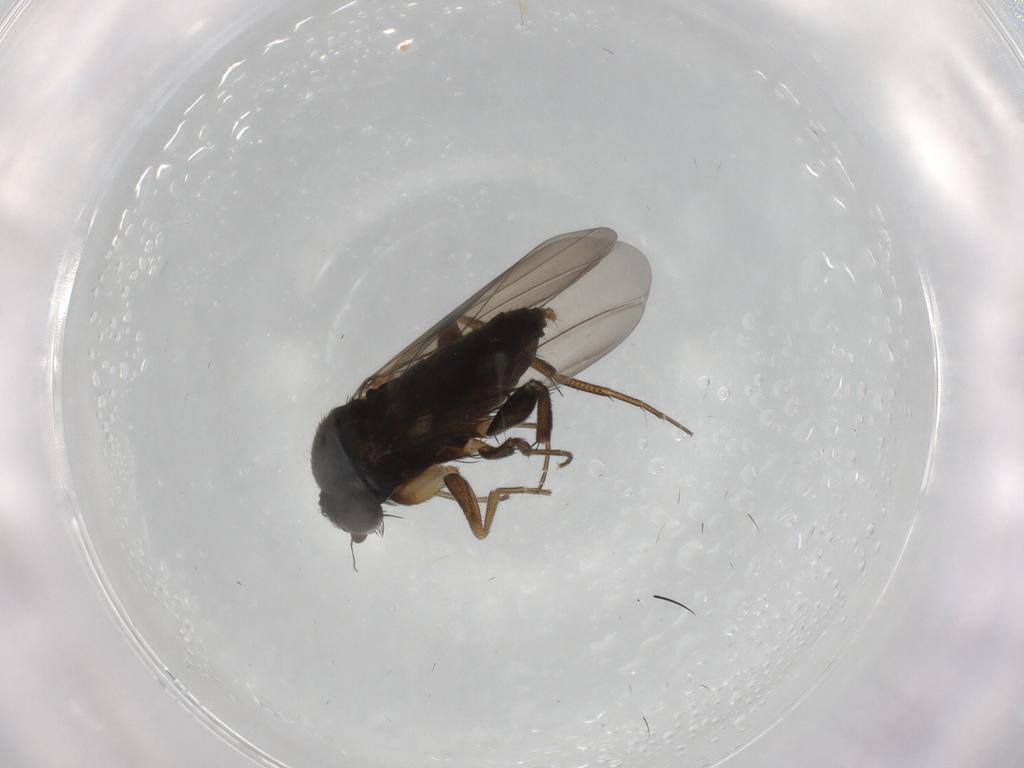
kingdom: Animalia
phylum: Arthropoda
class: Insecta
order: Diptera
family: Phoridae
